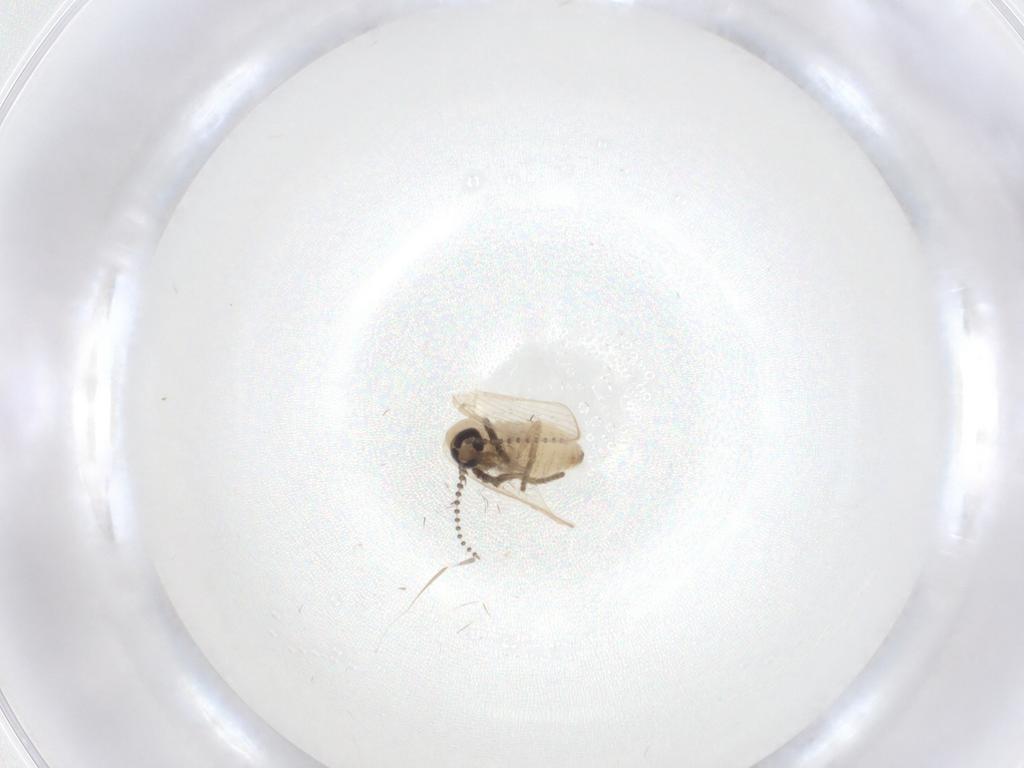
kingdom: Animalia
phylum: Arthropoda
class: Insecta
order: Diptera
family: Psychodidae
